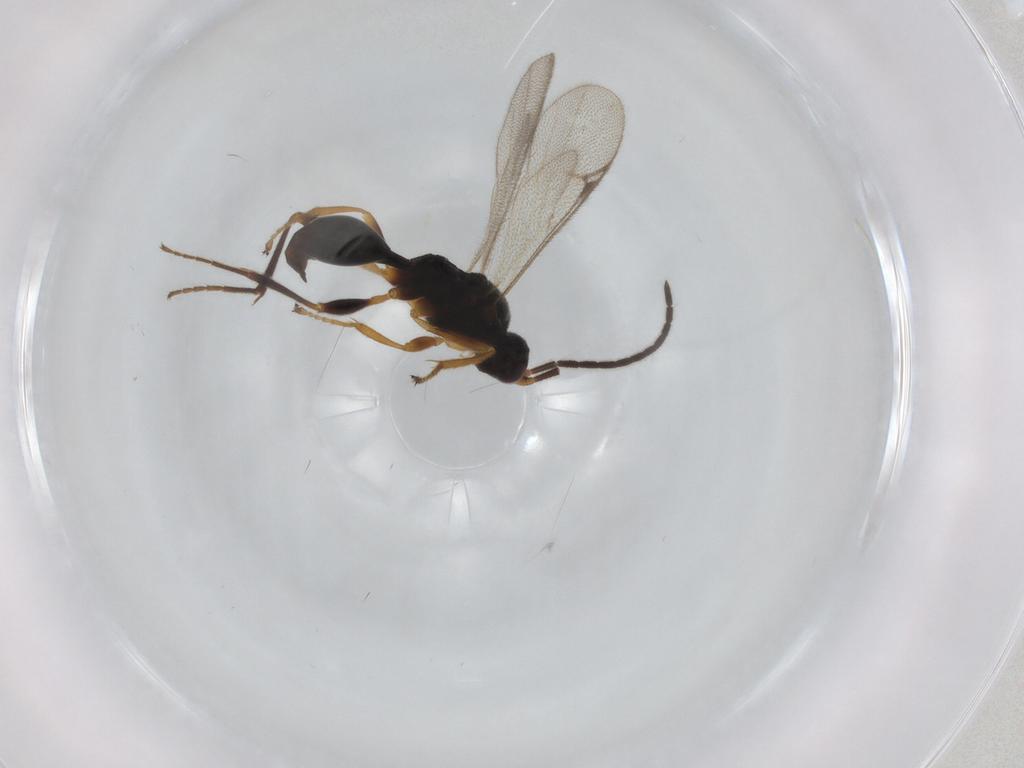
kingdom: Animalia
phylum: Arthropoda
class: Insecta
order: Hymenoptera
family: Proctotrupidae
